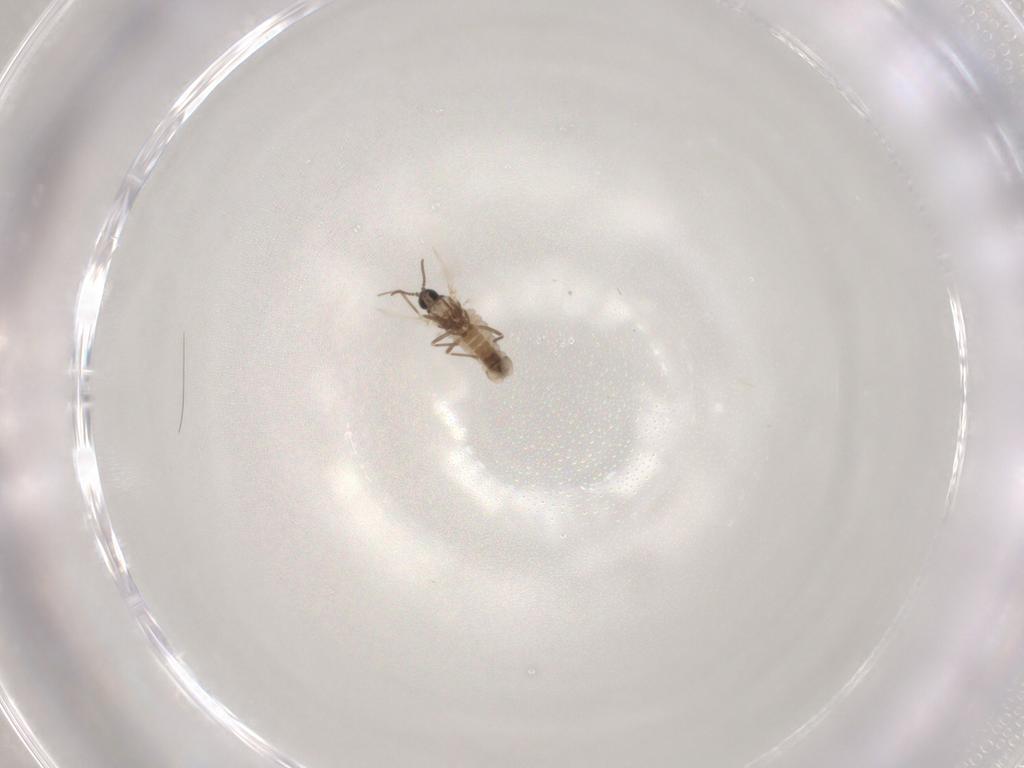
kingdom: Animalia
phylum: Arthropoda
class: Insecta
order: Diptera
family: Cecidomyiidae
